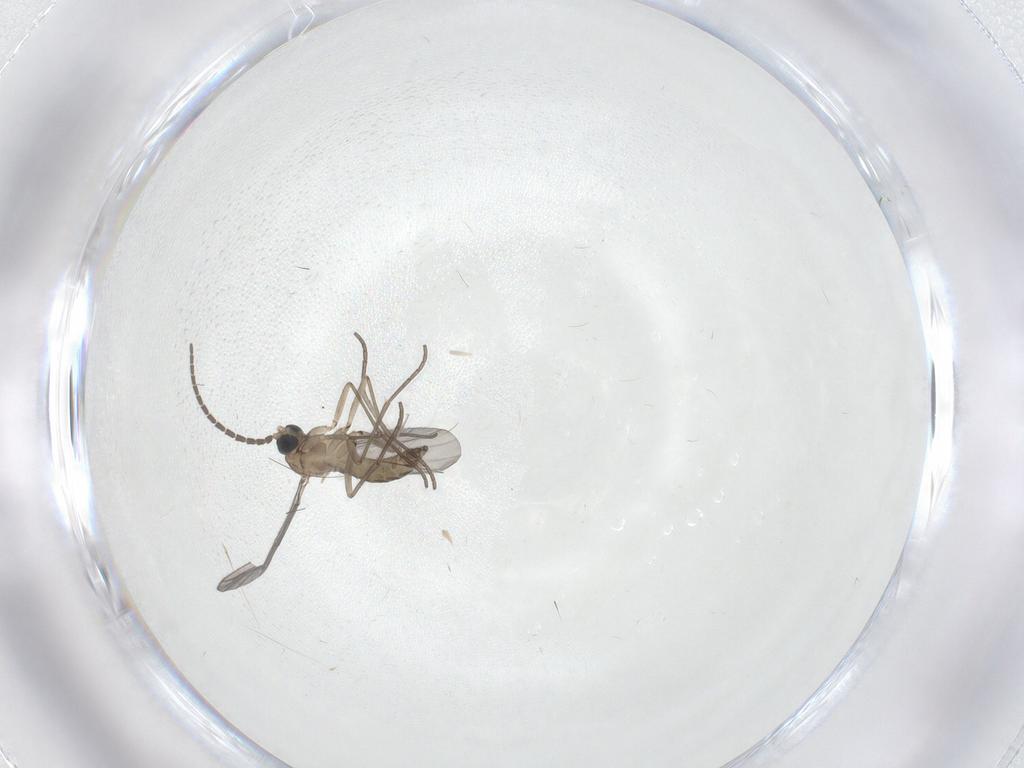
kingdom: Animalia
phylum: Arthropoda
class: Insecta
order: Diptera
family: Sciaridae
